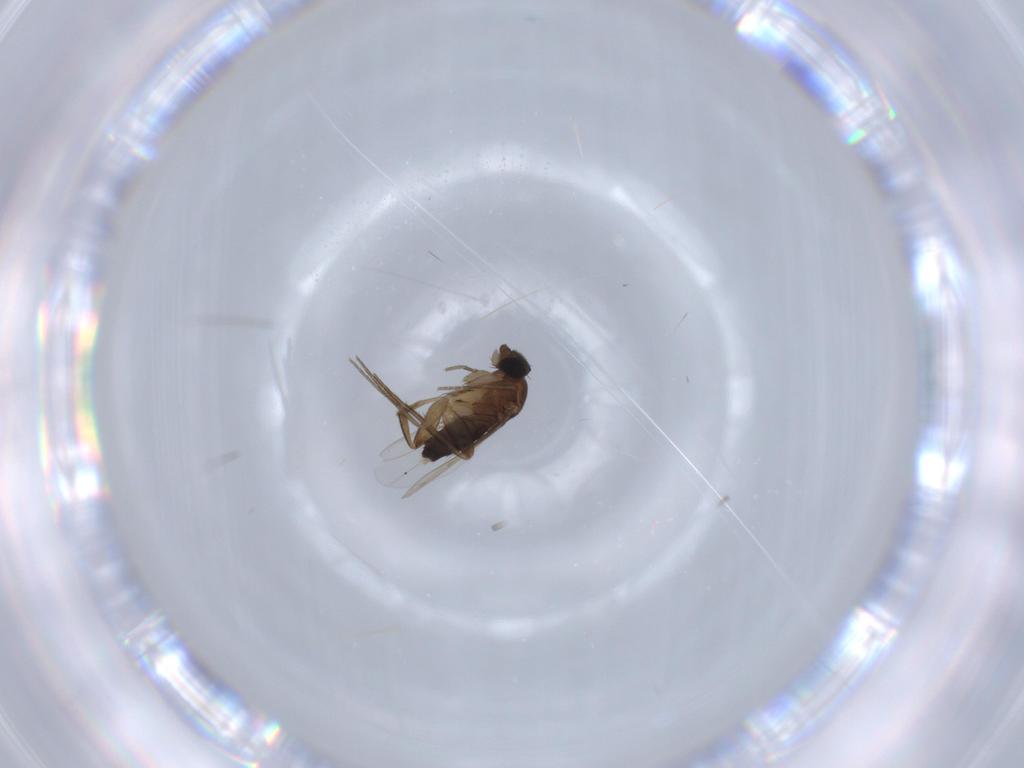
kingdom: Animalia
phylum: Arthropoda
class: Insecta
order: Diptera
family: Phoridae
